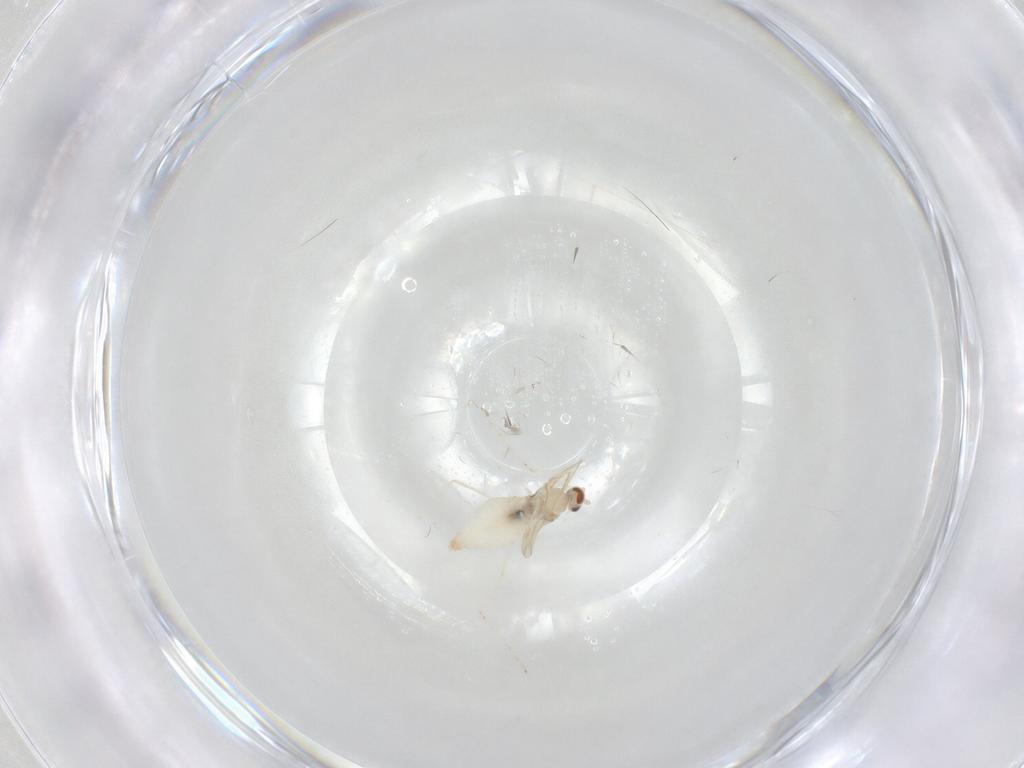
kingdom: Animalia
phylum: Arthropoda
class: Insecta
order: Diptera
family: Cecidomyiidae
